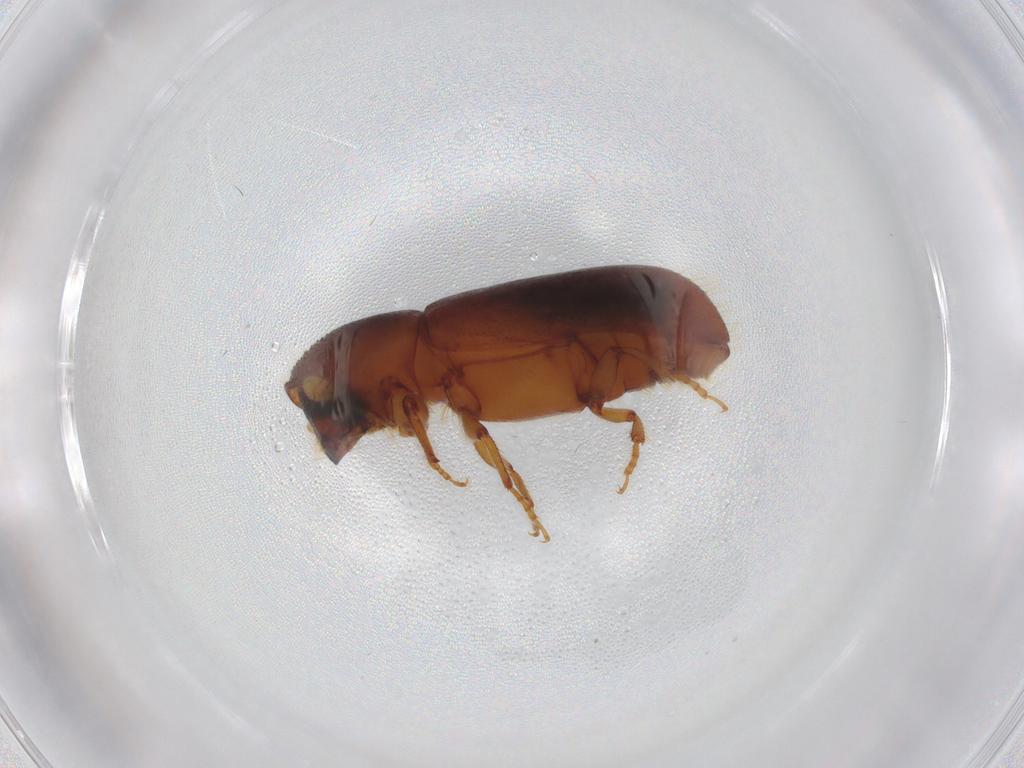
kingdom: Animalia
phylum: Arthropoda
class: Insecta
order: Coleoptera
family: Curculionidae
